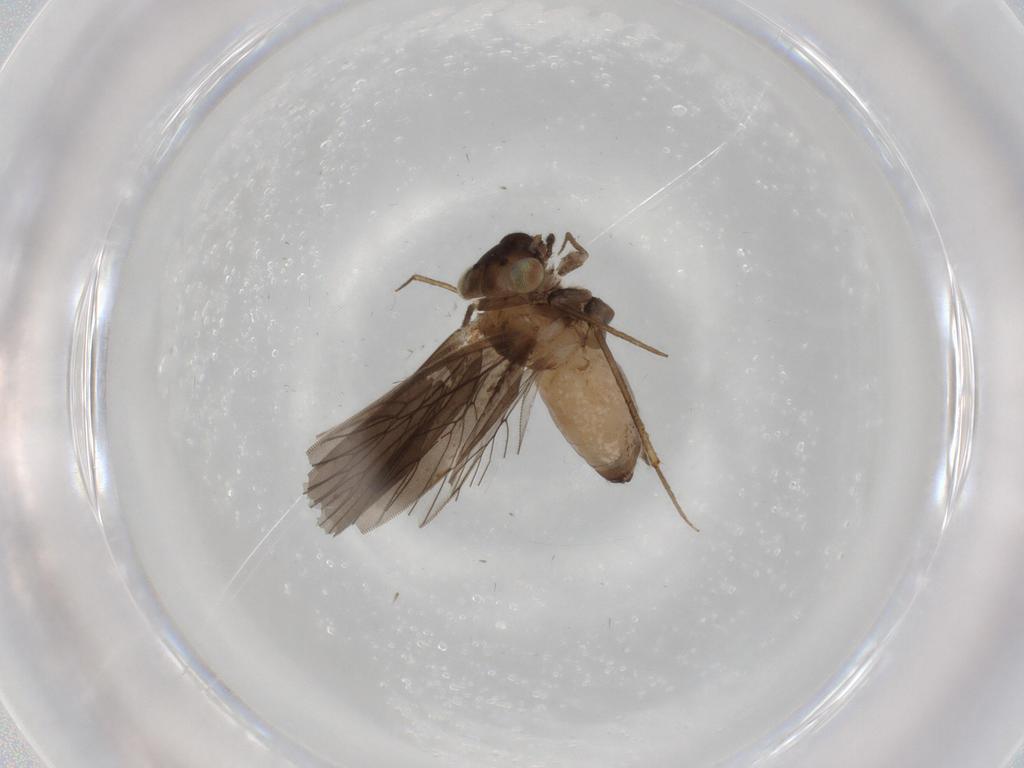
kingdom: Animalia
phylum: Arthropoda
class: Insecta
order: Psocodea
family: Lepidopsocidae
